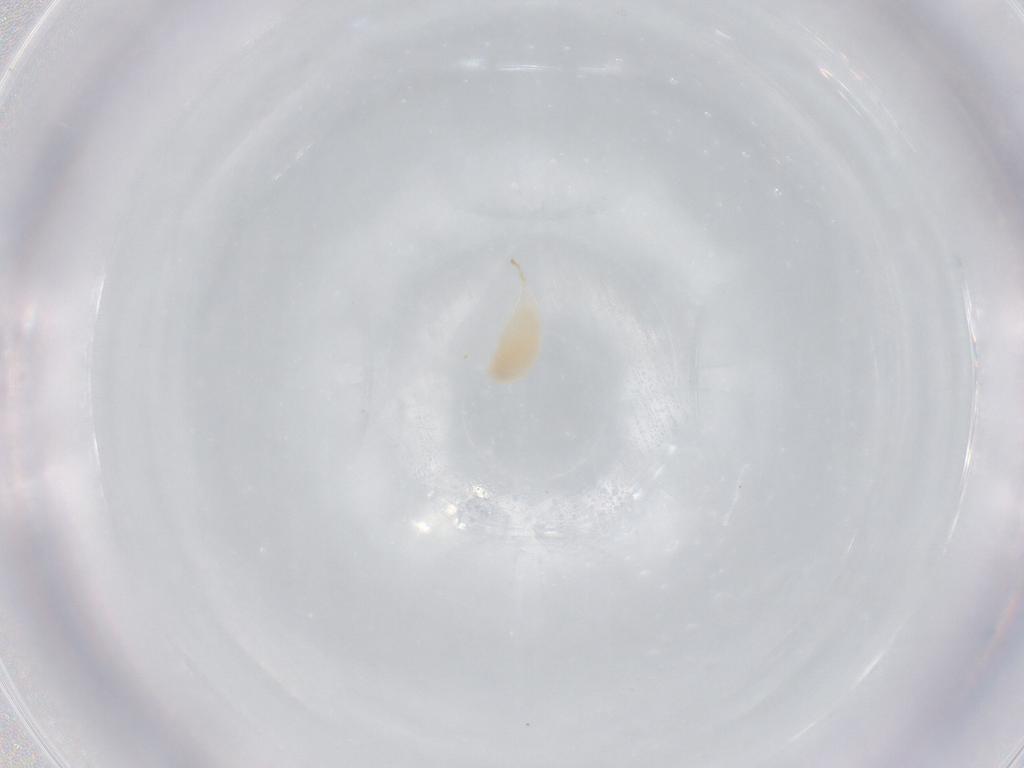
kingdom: Animalia
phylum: Arthropoda
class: Insecta
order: Hymenoptera
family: Ichneumonidae
